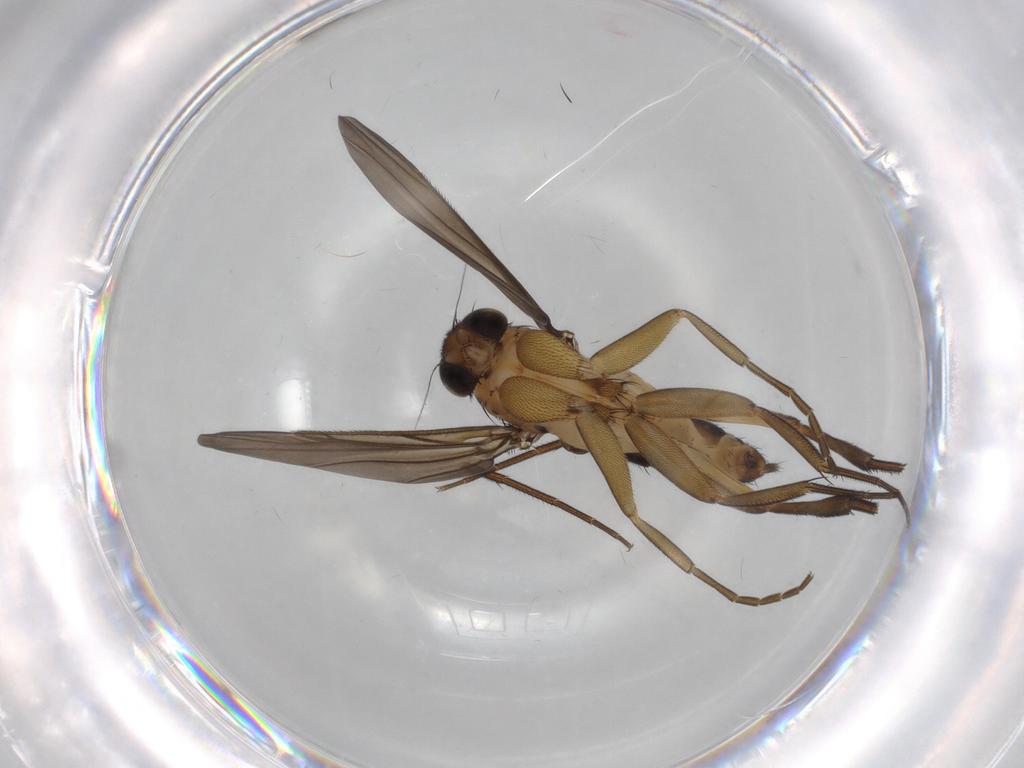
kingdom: Animalia
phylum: Arthropoda
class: Insecta
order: Diptera
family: Phoridae
